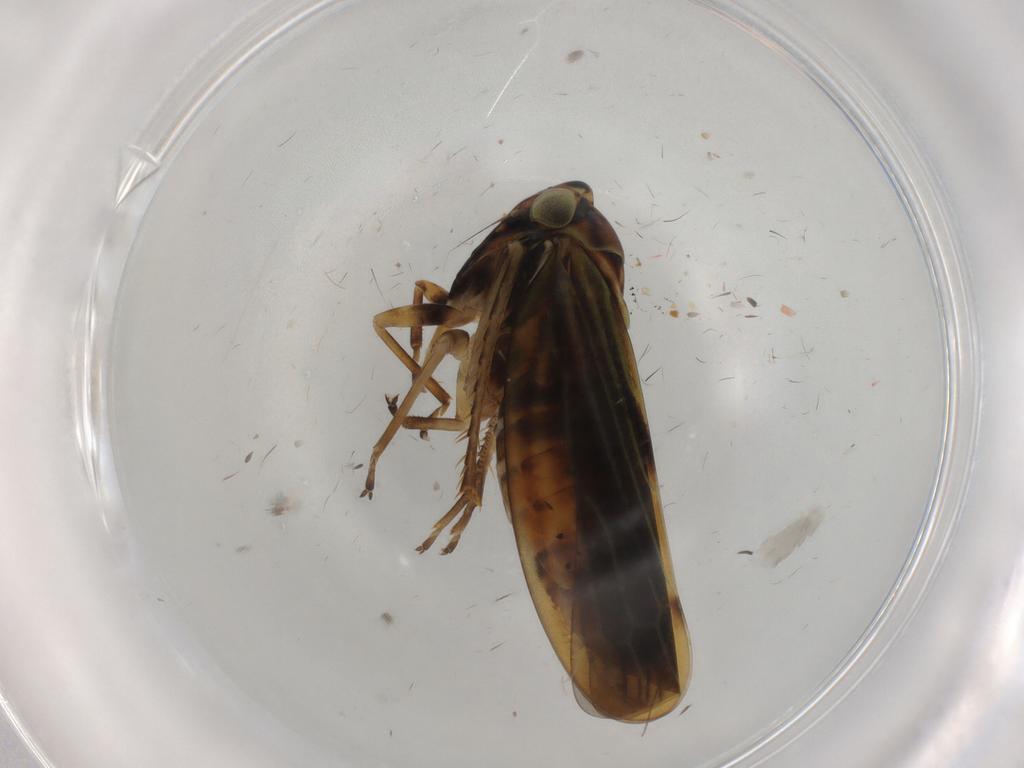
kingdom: Animalia
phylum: Arthropoda
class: Insecta
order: Hemiptera
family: Cicadellidae
